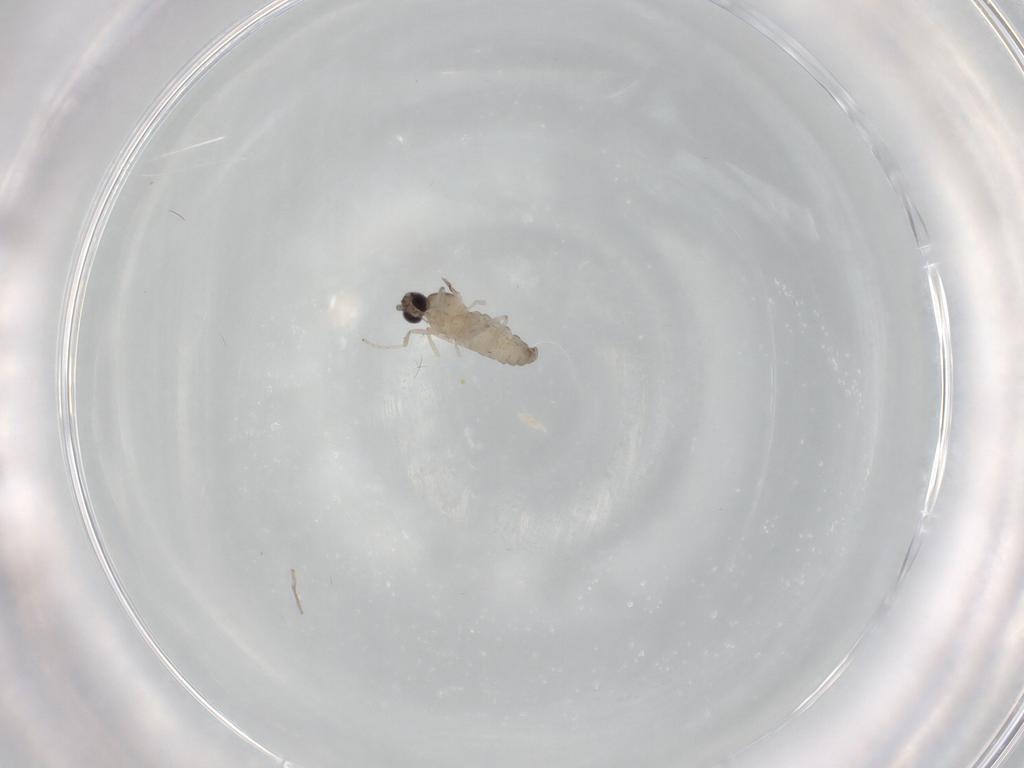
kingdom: Animalia
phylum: Arthropoda
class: Insecta
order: Diptera
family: Cecidomyiidae
